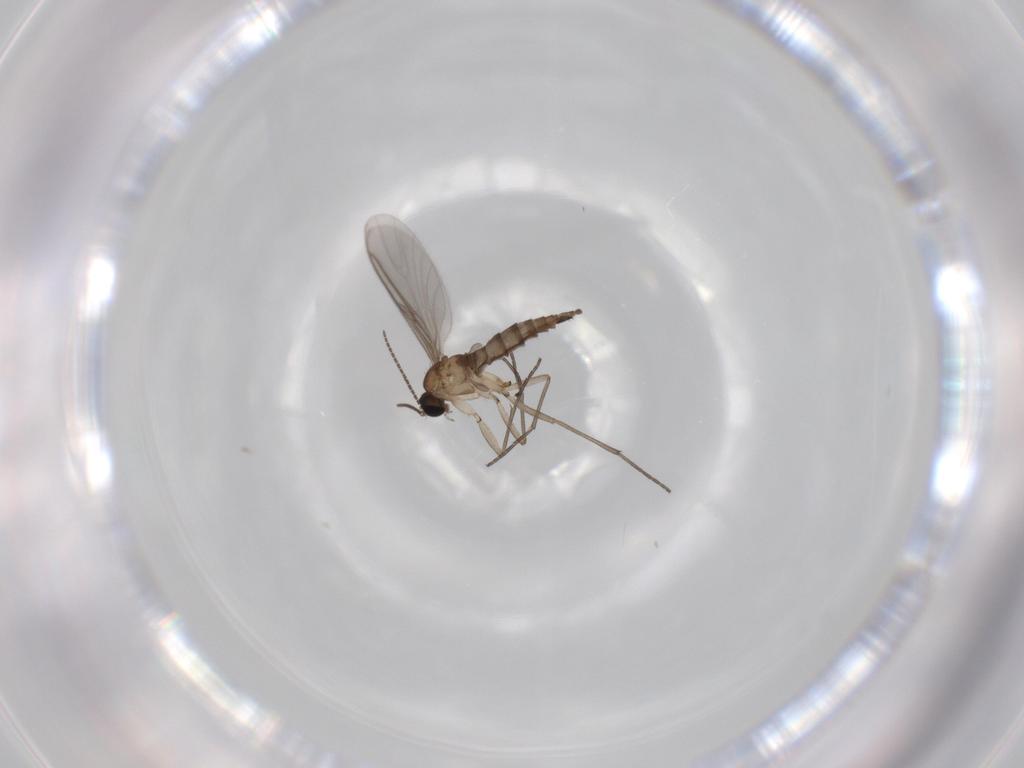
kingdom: Animalia
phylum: Arthropoda
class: Insecta
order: Diptera
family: Sciaridae
